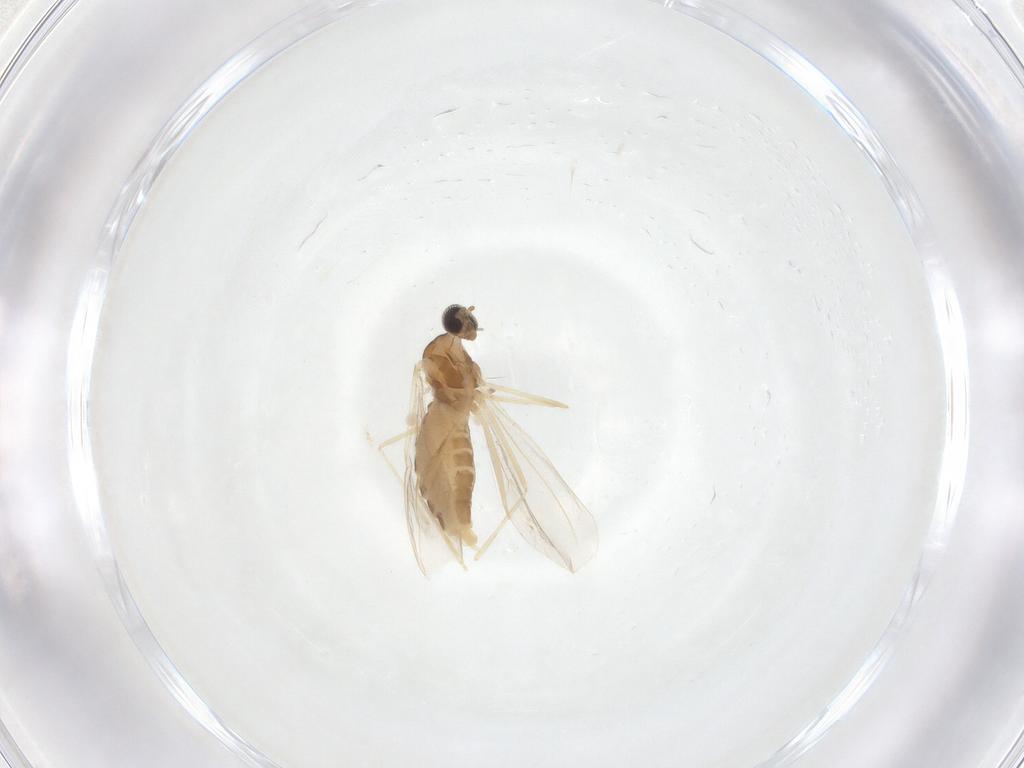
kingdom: Animalia
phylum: Arthropoda
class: Insecta
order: Diptera
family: Cecidomyiidae
